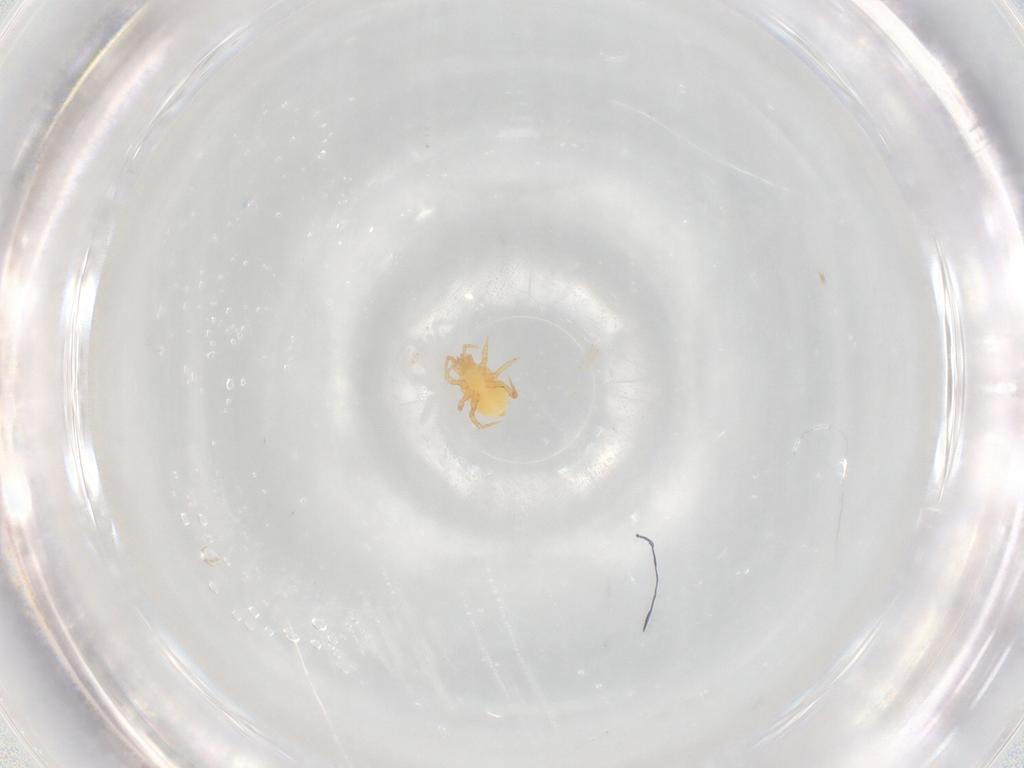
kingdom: Animalia
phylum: Arthropoda
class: Arachnida
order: Mesostigmata
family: Parasitidae
